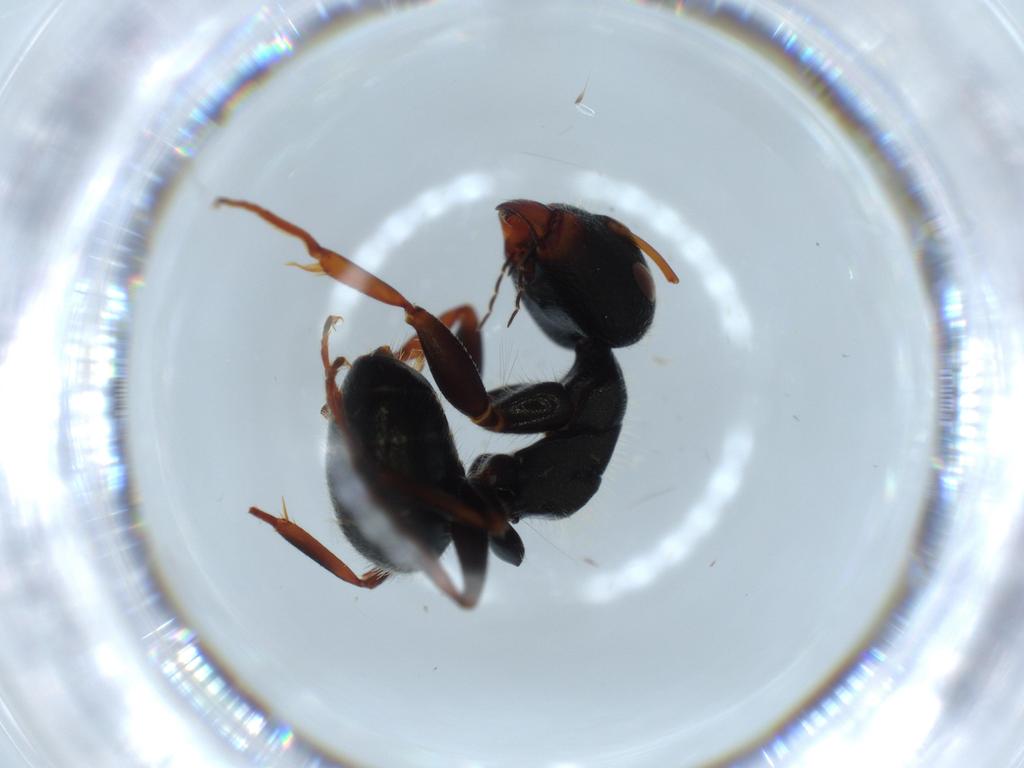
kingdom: Animalia
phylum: Arthropoda
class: Insecta
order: Hymenoptera
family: Formicidae
